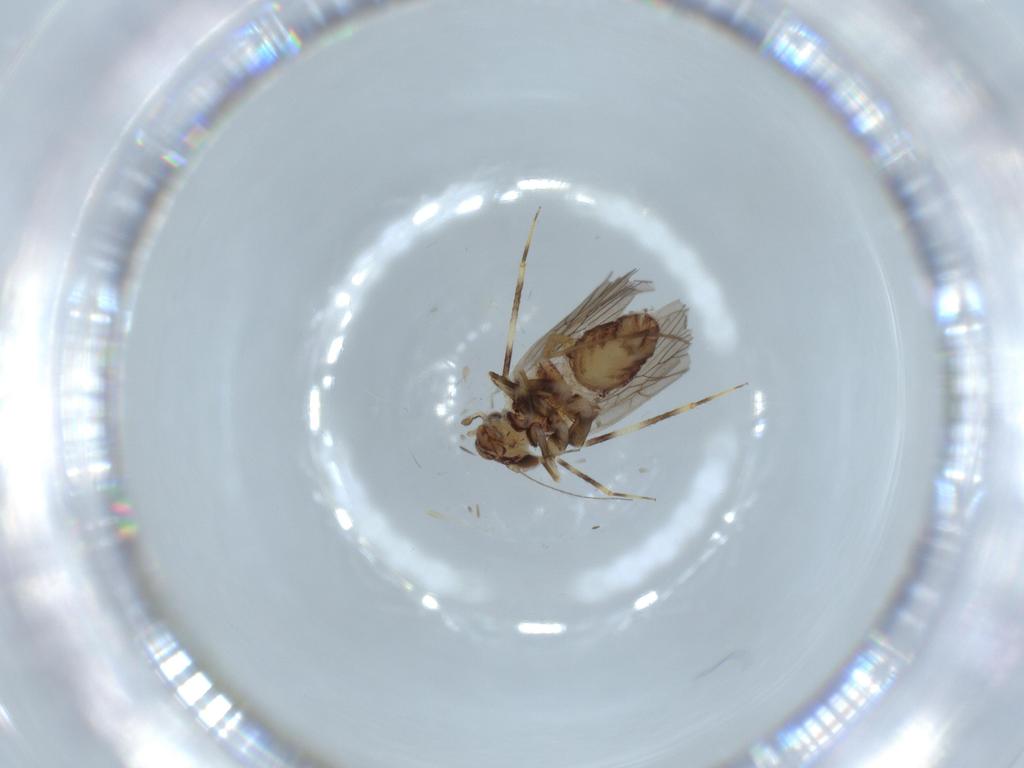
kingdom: Animalia
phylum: Arthropoda
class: Insecta
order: Psocodea
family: Lepidopsocidae
